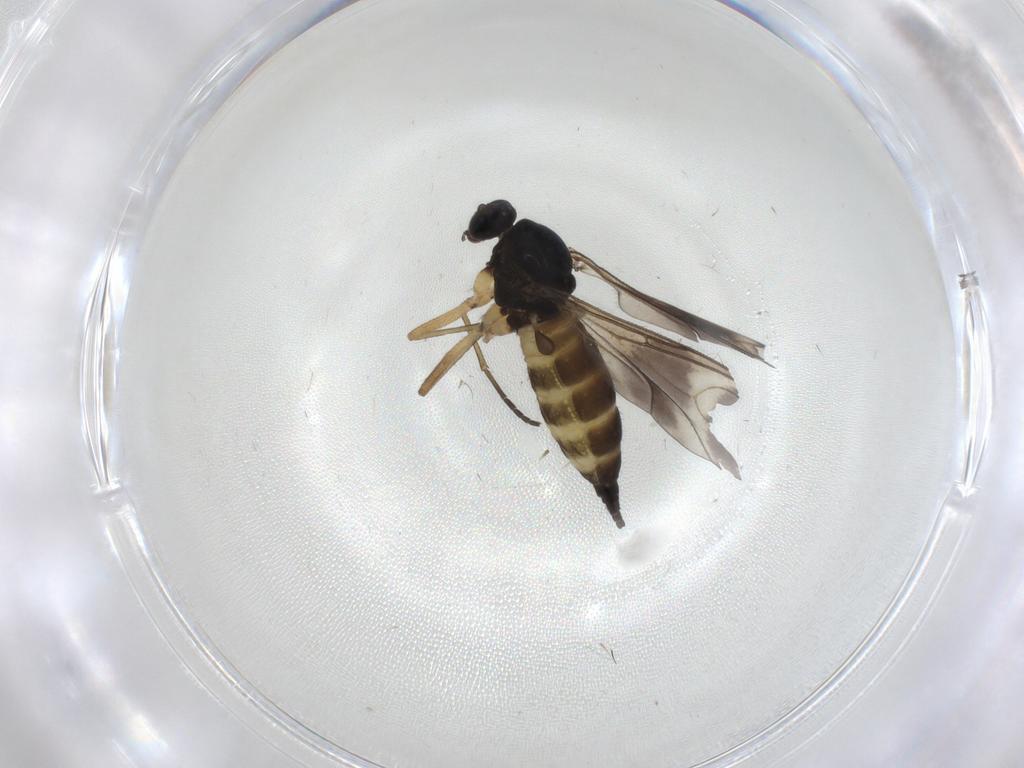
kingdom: Animalia
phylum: Arthropoda
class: Insecta
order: Diptera
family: Sciaridae
